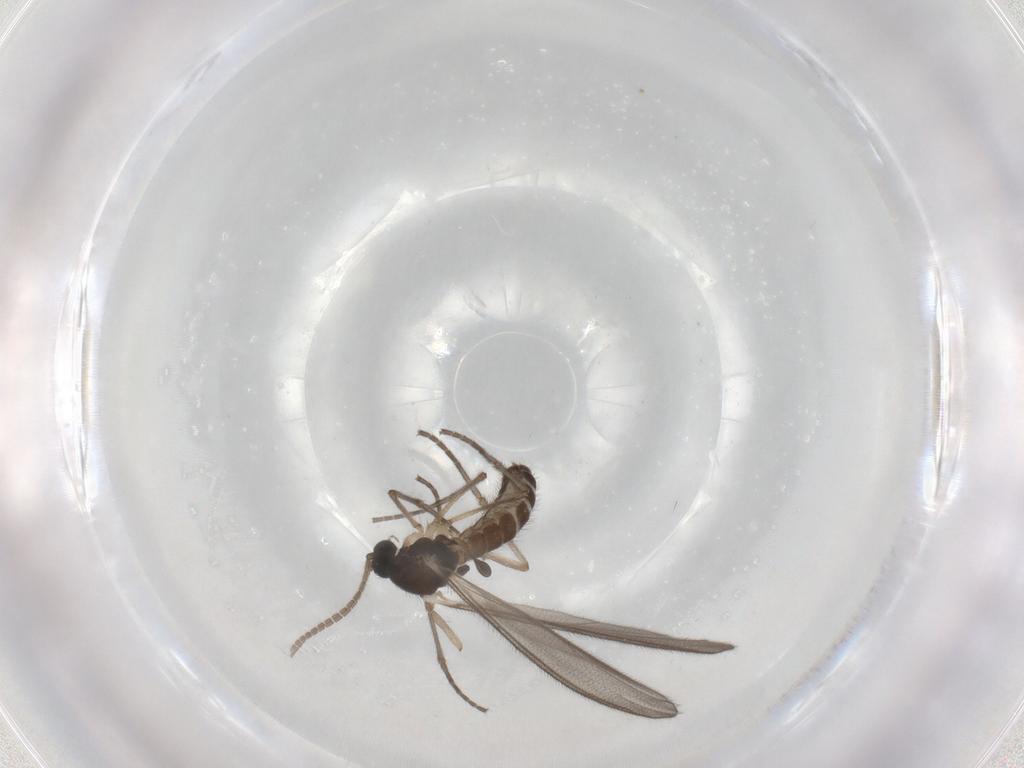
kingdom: Animalia
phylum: Arthropoda
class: Insecta
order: Diptera
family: Mycetophilidae
